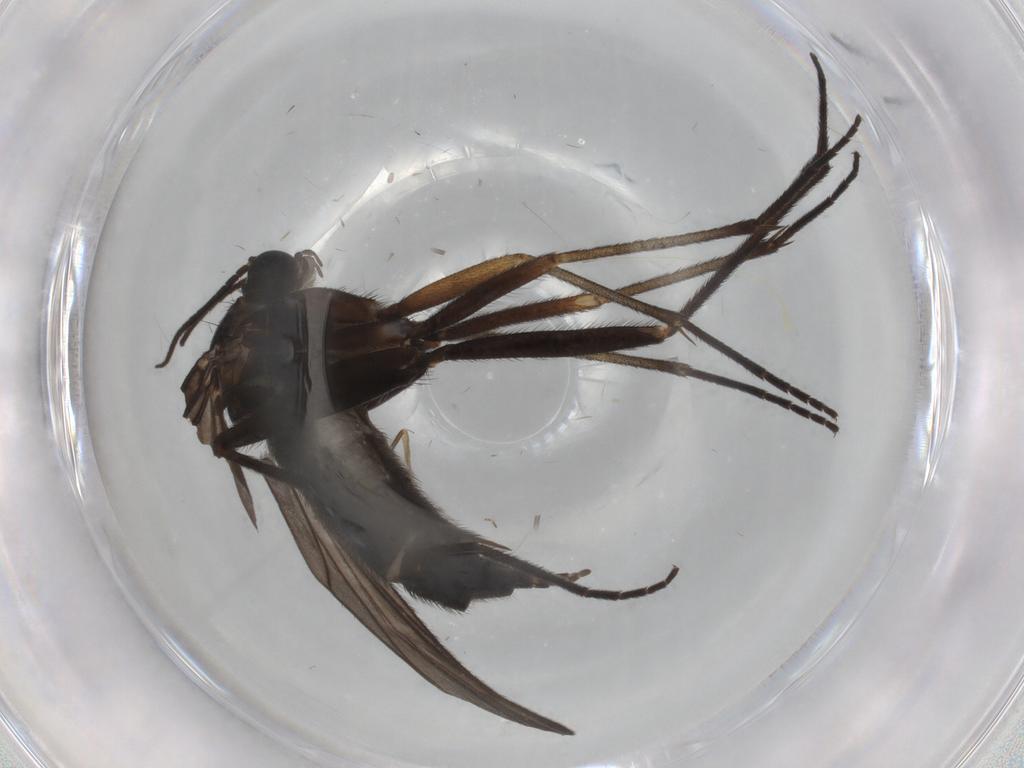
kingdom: Animalia
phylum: Arthropoda
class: Insecta
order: Diptera
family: Sciaridae
